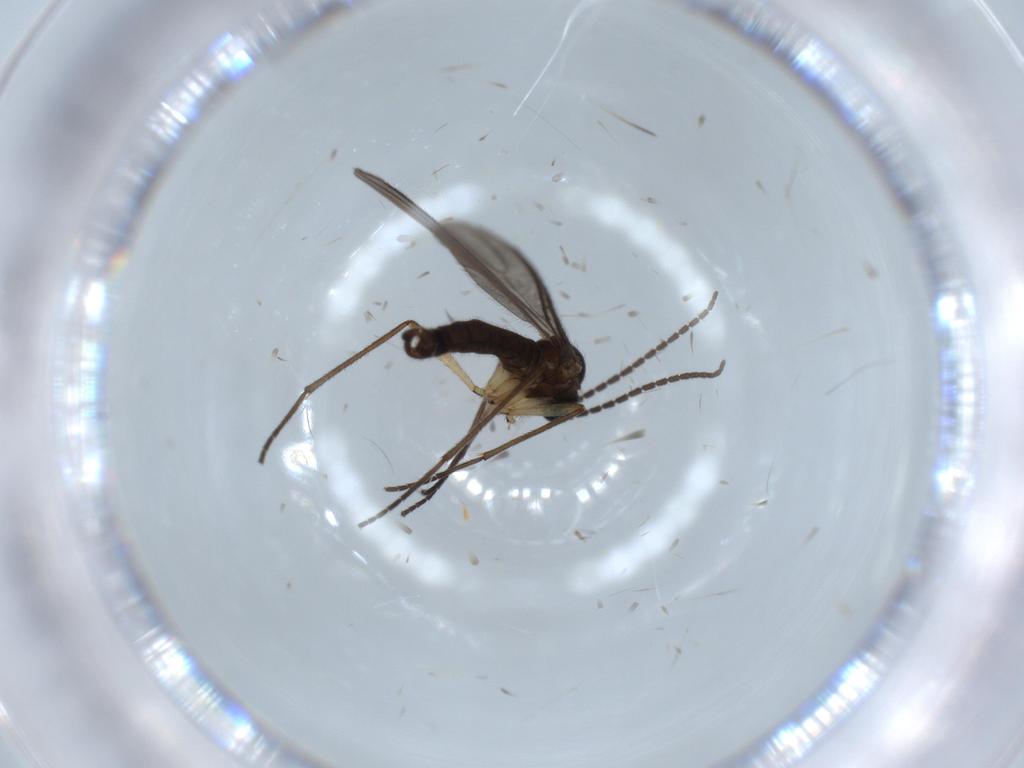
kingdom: Animalia
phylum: Arthropoda
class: Insecta
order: Diptera
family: Sciaridae
